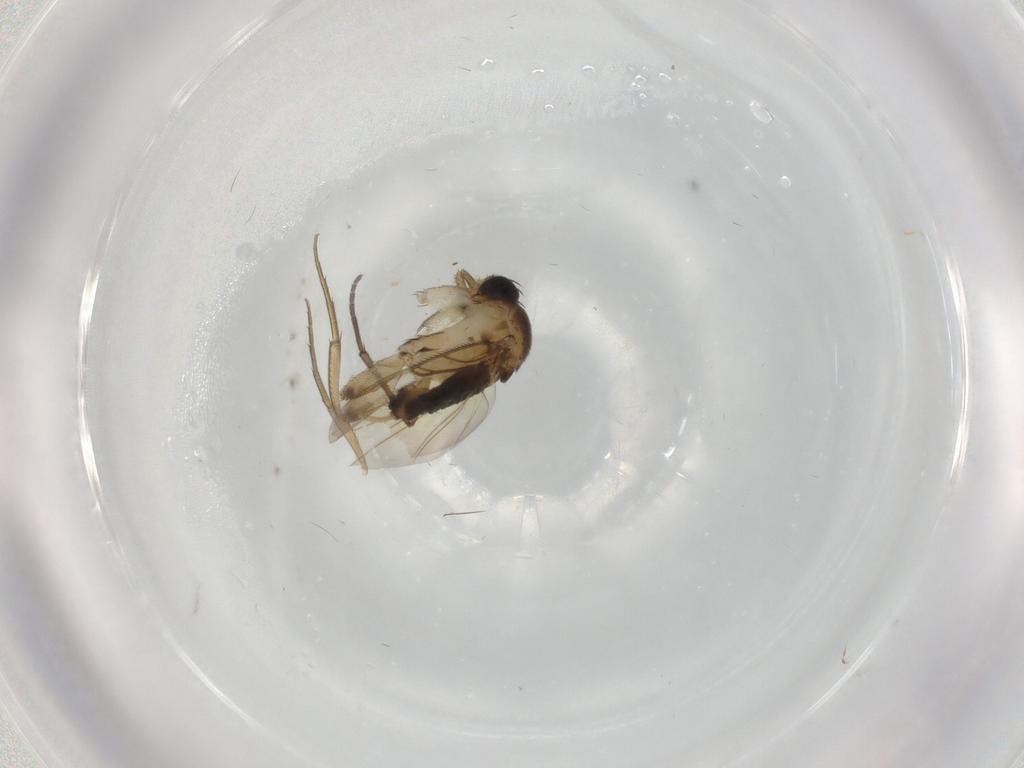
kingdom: Animalia
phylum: Arthropoda
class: Insecta
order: Diptera
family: Phoridae
